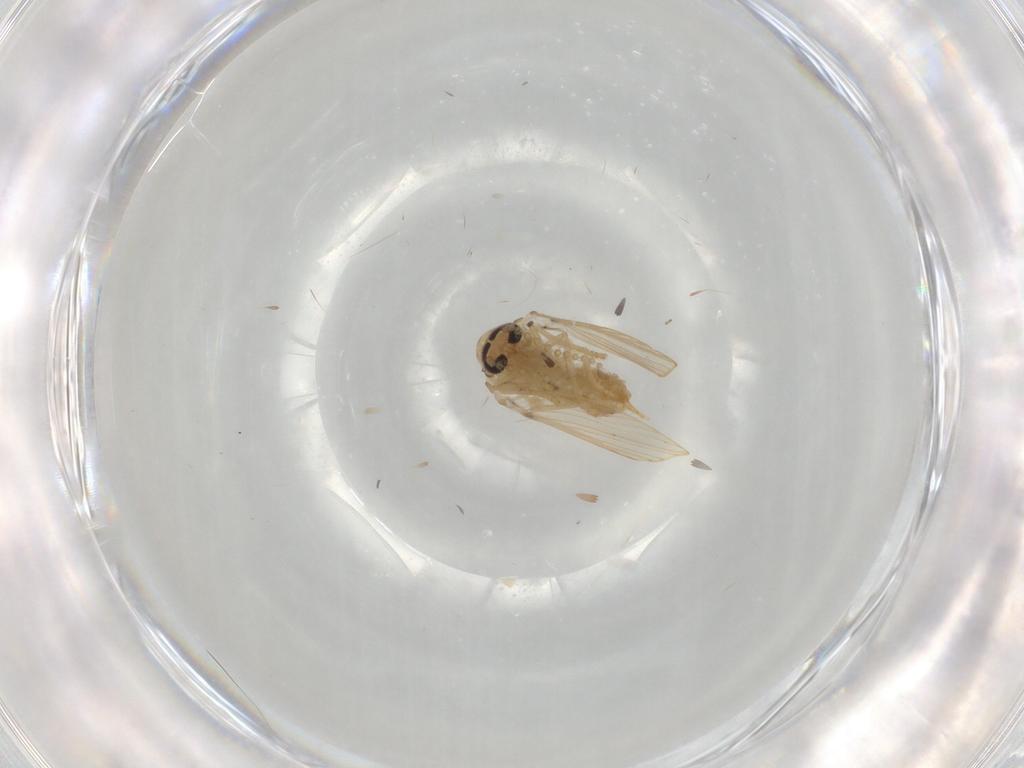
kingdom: Animalia
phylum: Arthropoda
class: Insecta
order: Diptera
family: Psychodidae
